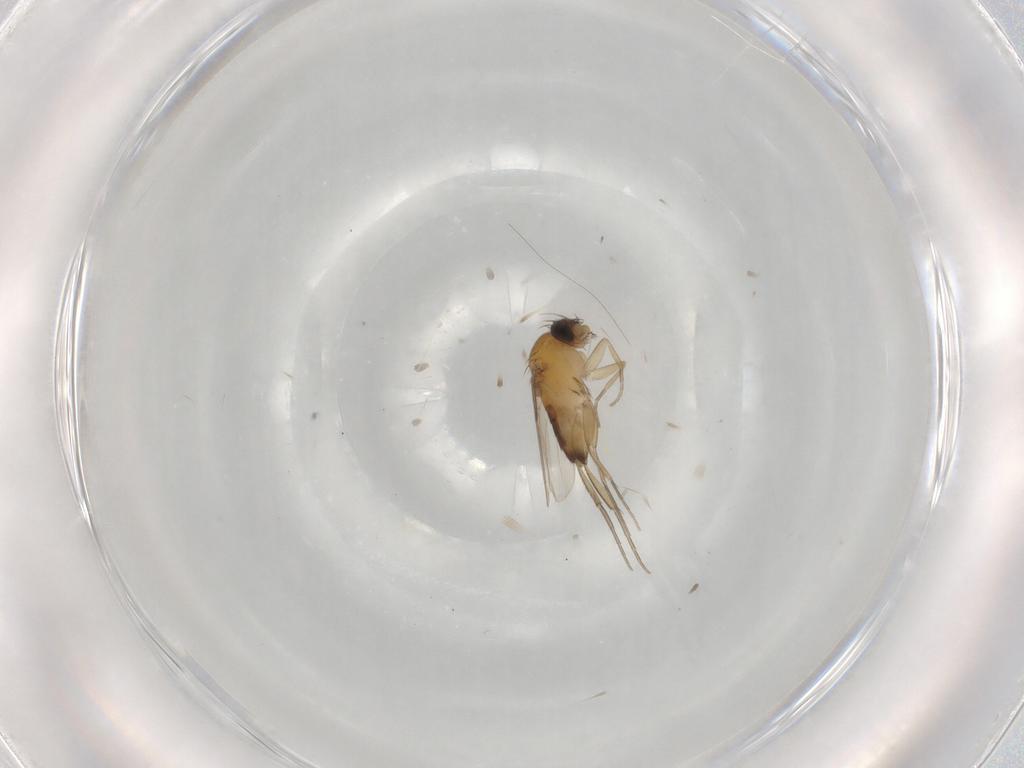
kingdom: Animalia
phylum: Arthropoda
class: Insecta
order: Diptera
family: Phoridae
